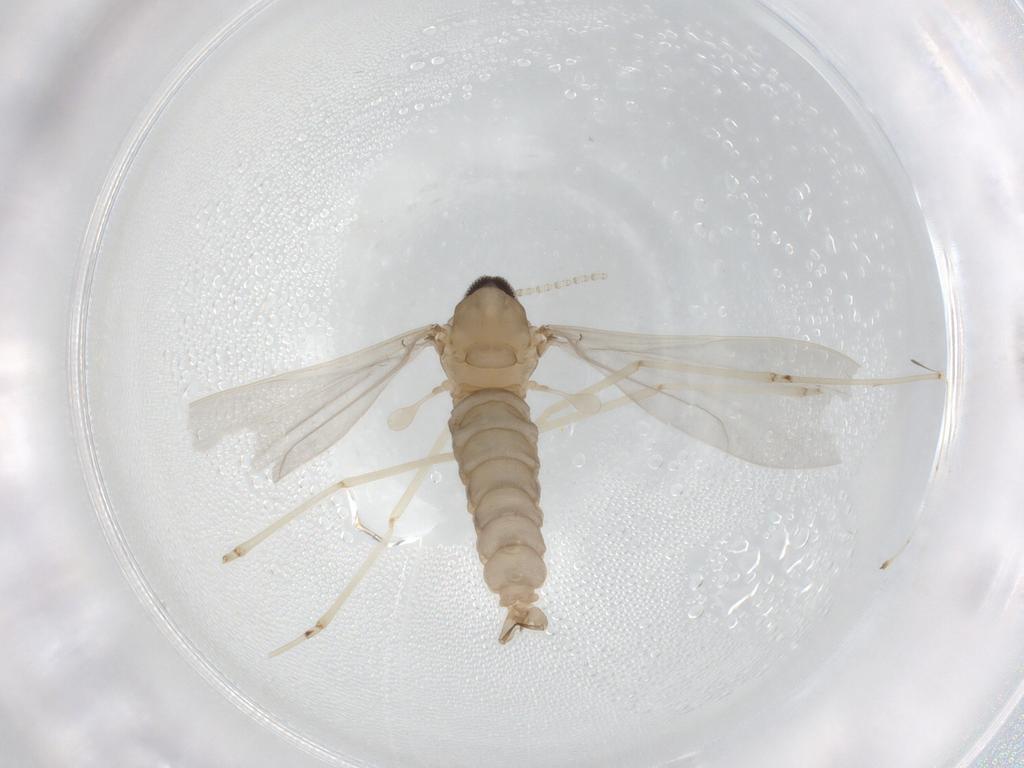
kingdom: Animalia
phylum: Arthropoda
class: Insecta
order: Diptera
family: Cecidomyiidae
